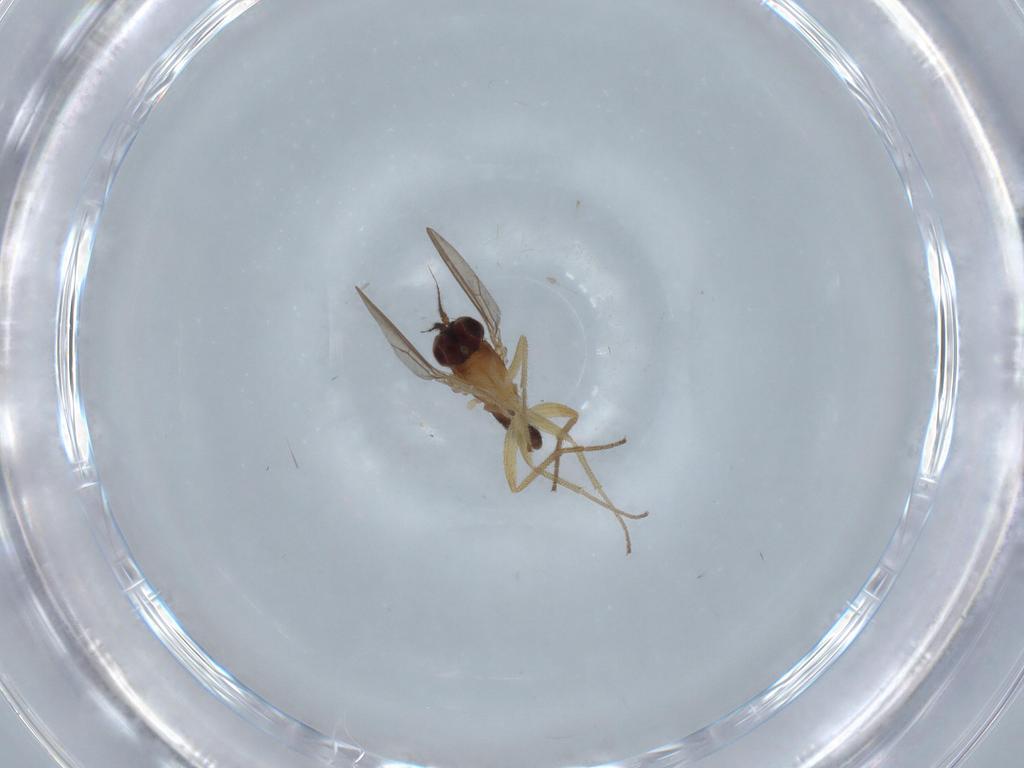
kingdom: Animalia
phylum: Arthropoda
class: Insecta
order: Diptera
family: Dolichopodidae
